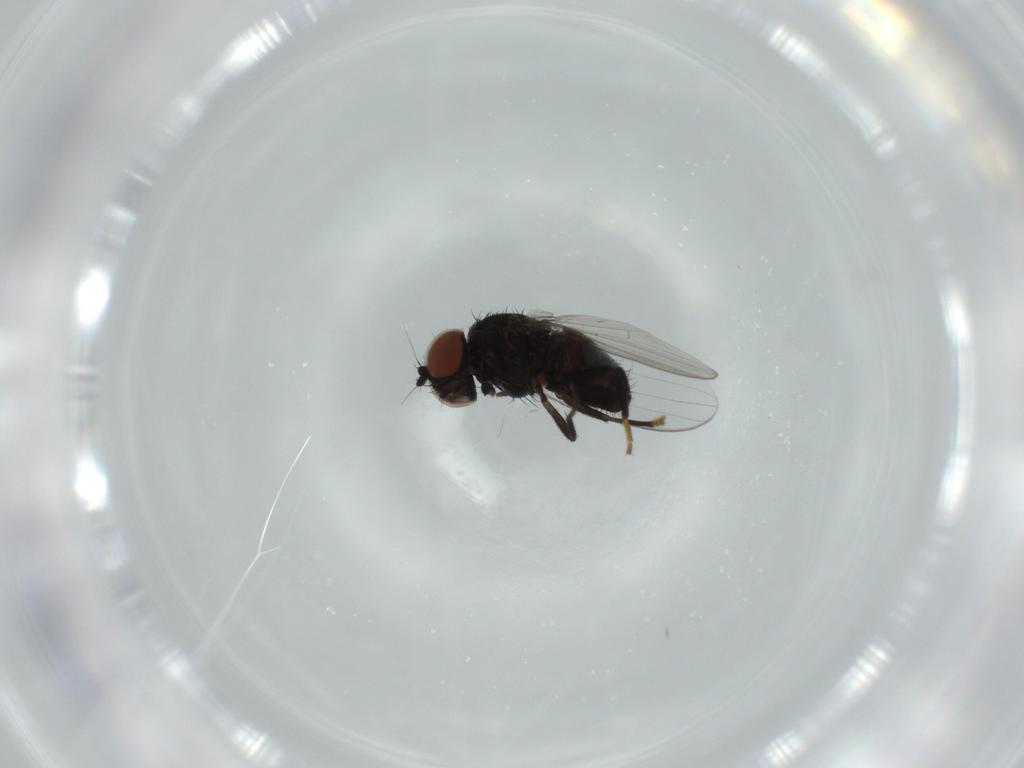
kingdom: Animalia
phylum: Arthropoda
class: Insecta
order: Diptera
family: Milichiidae
